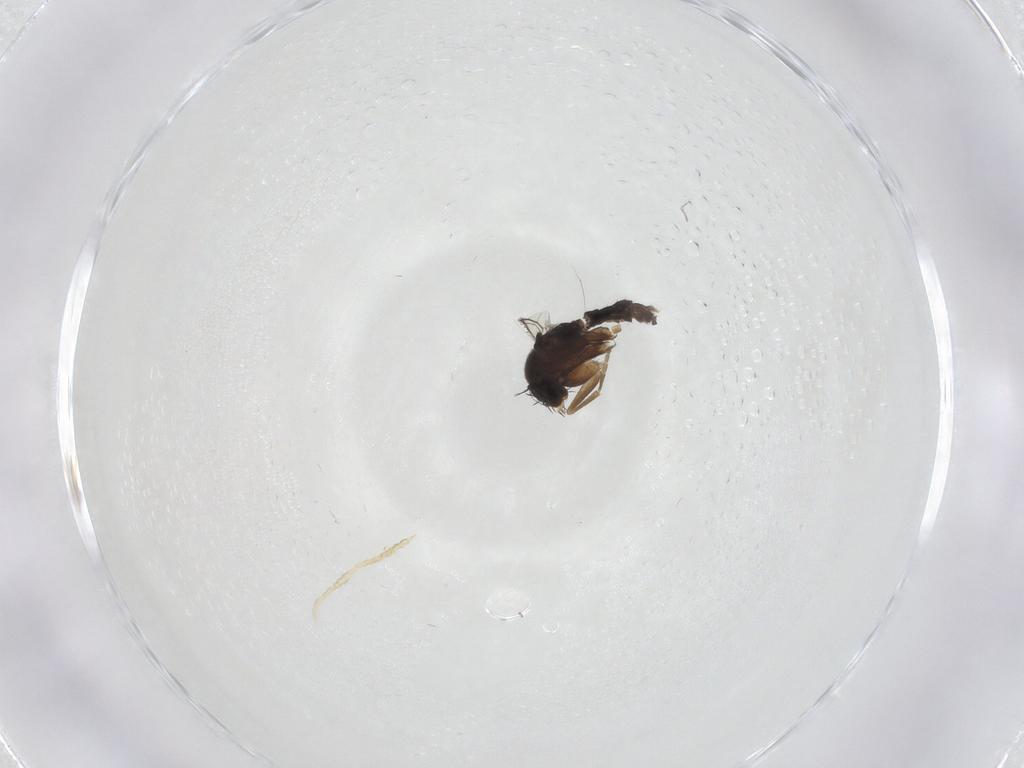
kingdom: Animalia
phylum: Arthropoda
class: Insecta
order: Diptera
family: Phoridae
